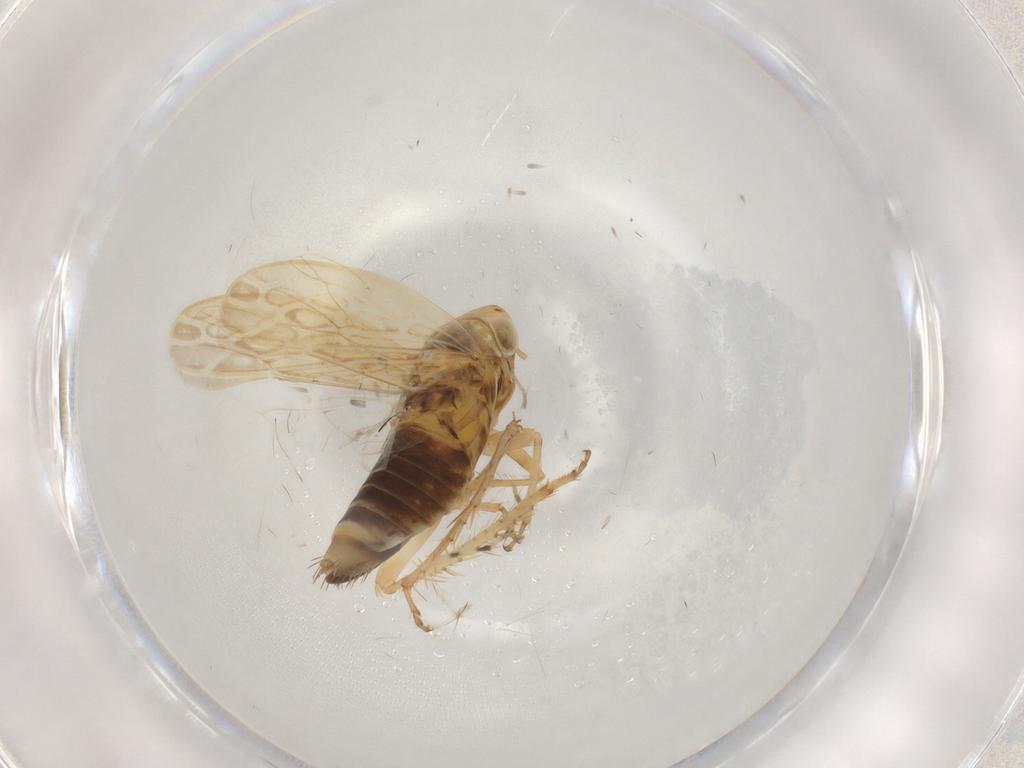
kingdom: Animalia
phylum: Arthropoda
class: Insecta
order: Hemiptera
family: Cicadellidae
